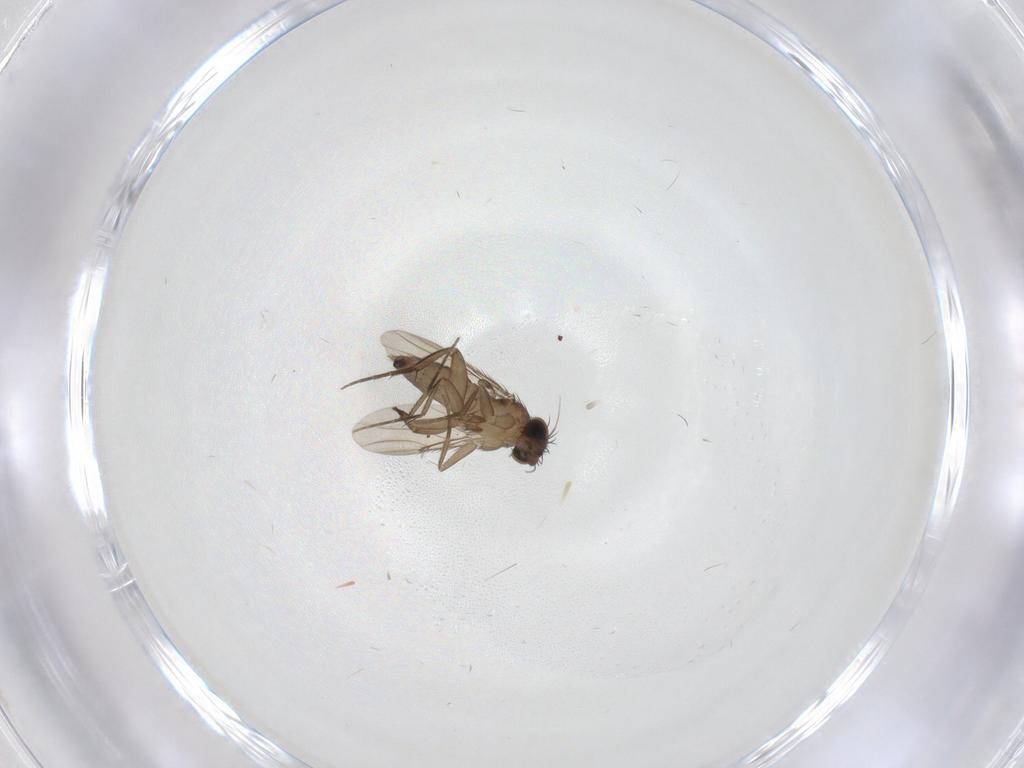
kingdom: Animalia
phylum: Arthropoda
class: Insecta
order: Diptera
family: Phoridae
